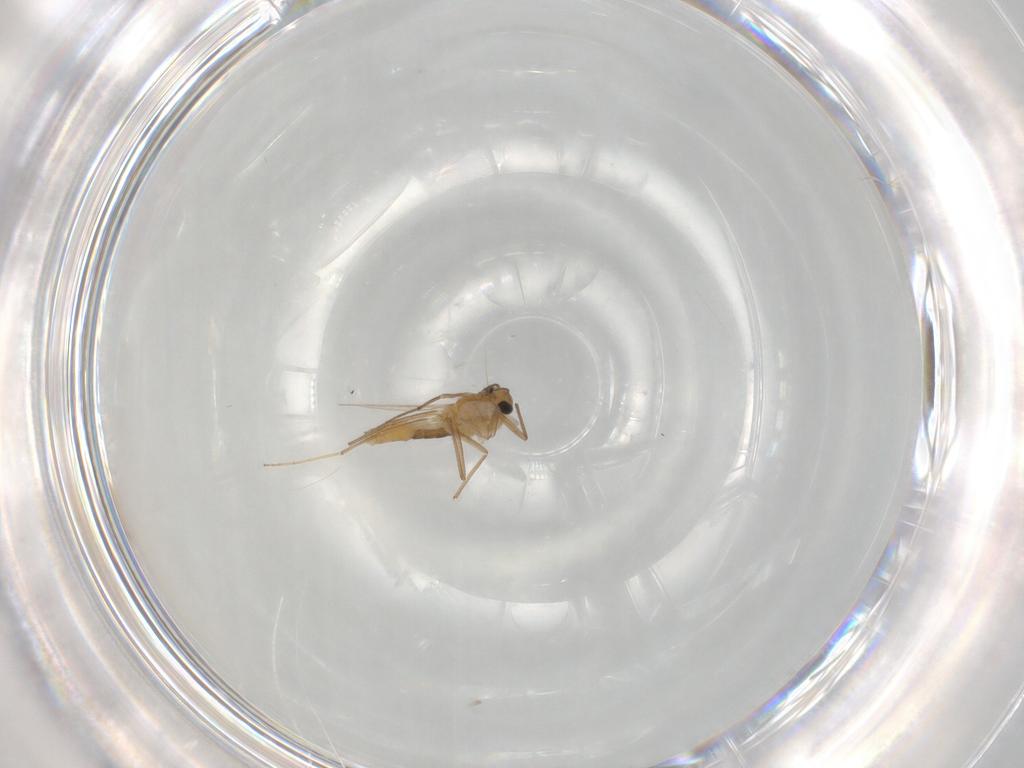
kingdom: Animalia
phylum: Arthropoda
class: Insecta
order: Diptera
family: Chironomidae
